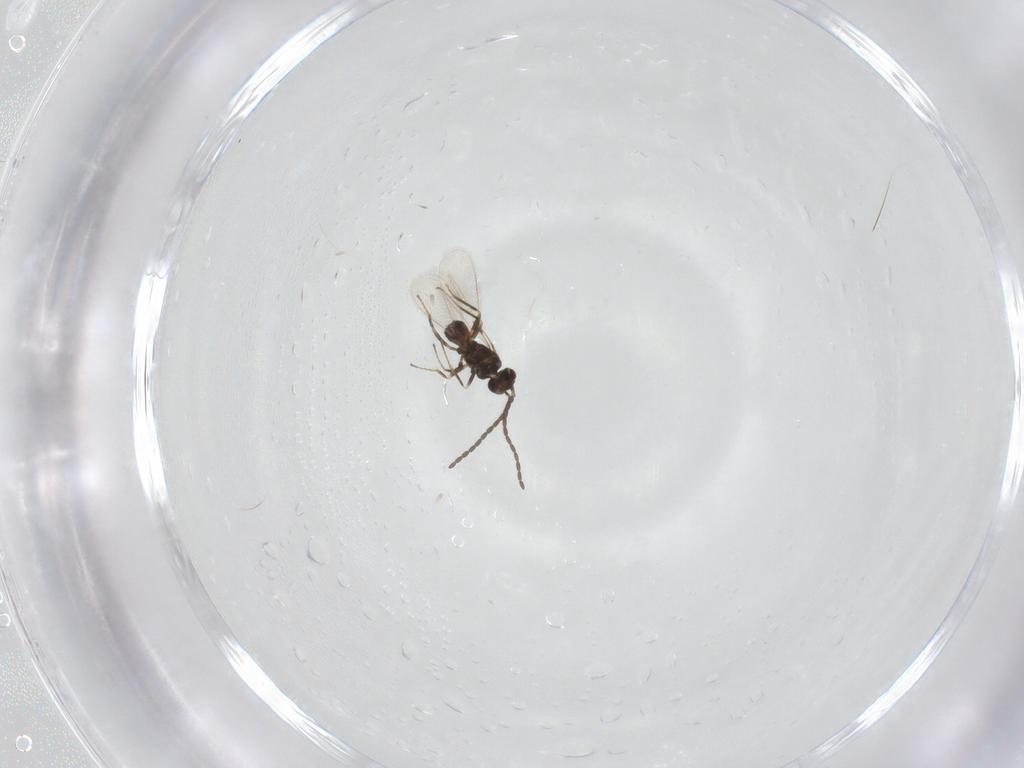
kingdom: Animalia
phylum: Arthropoda
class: Insecta
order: Hymenoptera
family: Mymaridae
